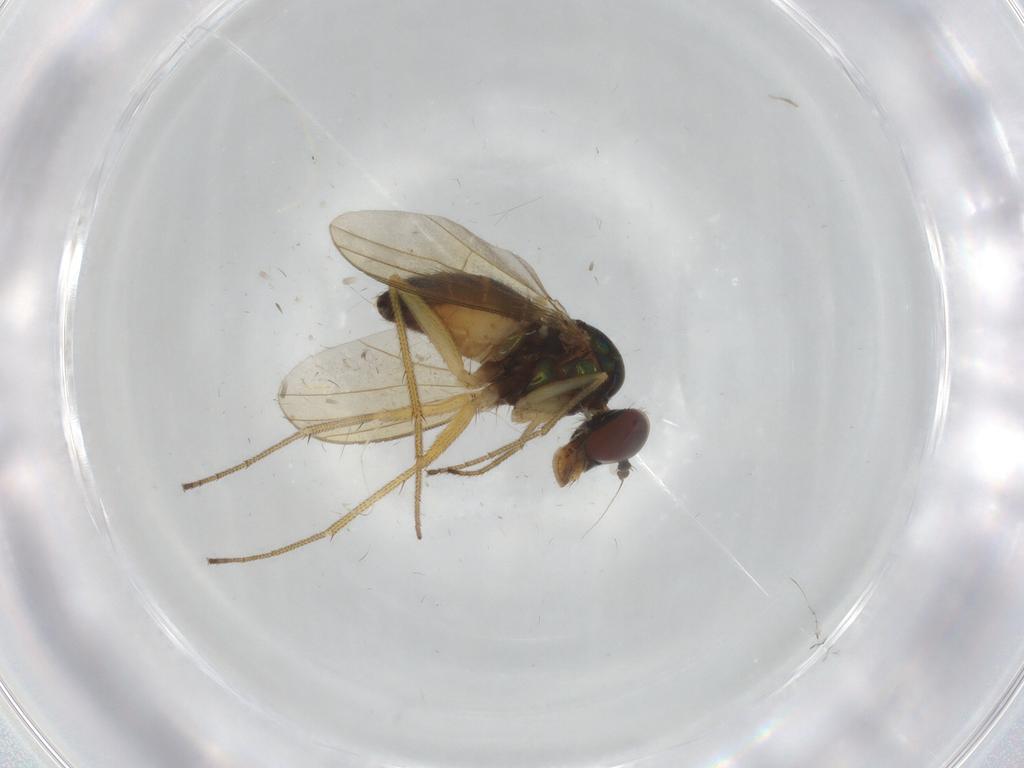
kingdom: Animalia
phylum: Arthropoda
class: Insecta
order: Diptera
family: Dolichopodidae
